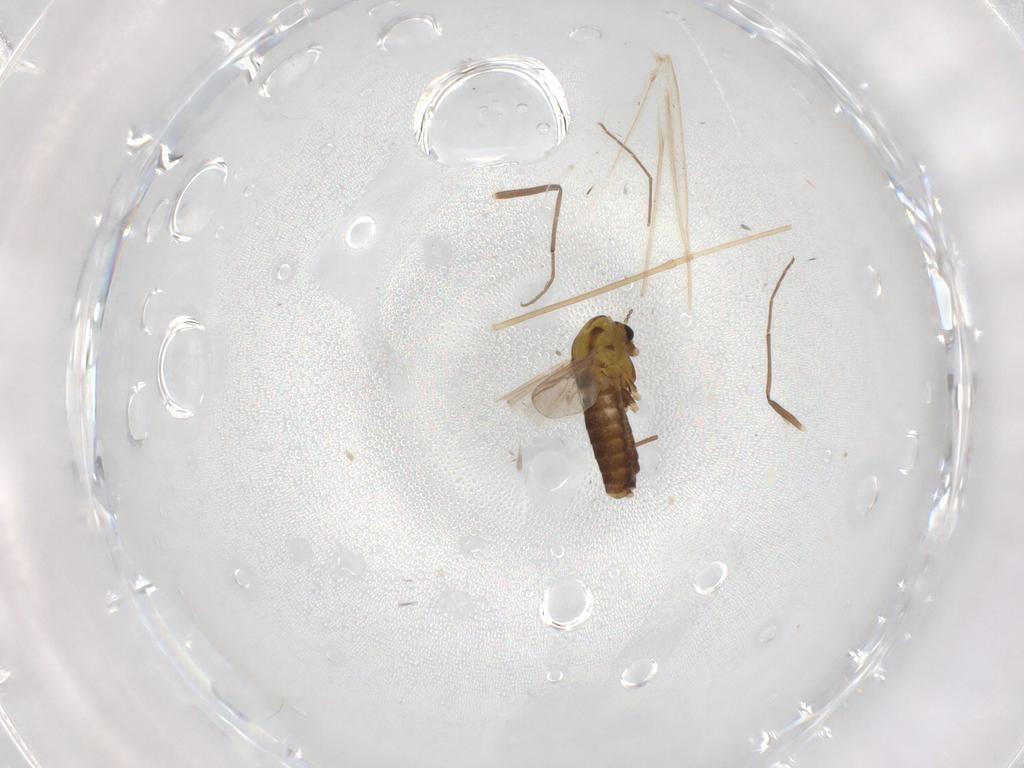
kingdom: Animalia
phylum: Arthropoda
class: Insecta
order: Diptera
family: Chironomidae
